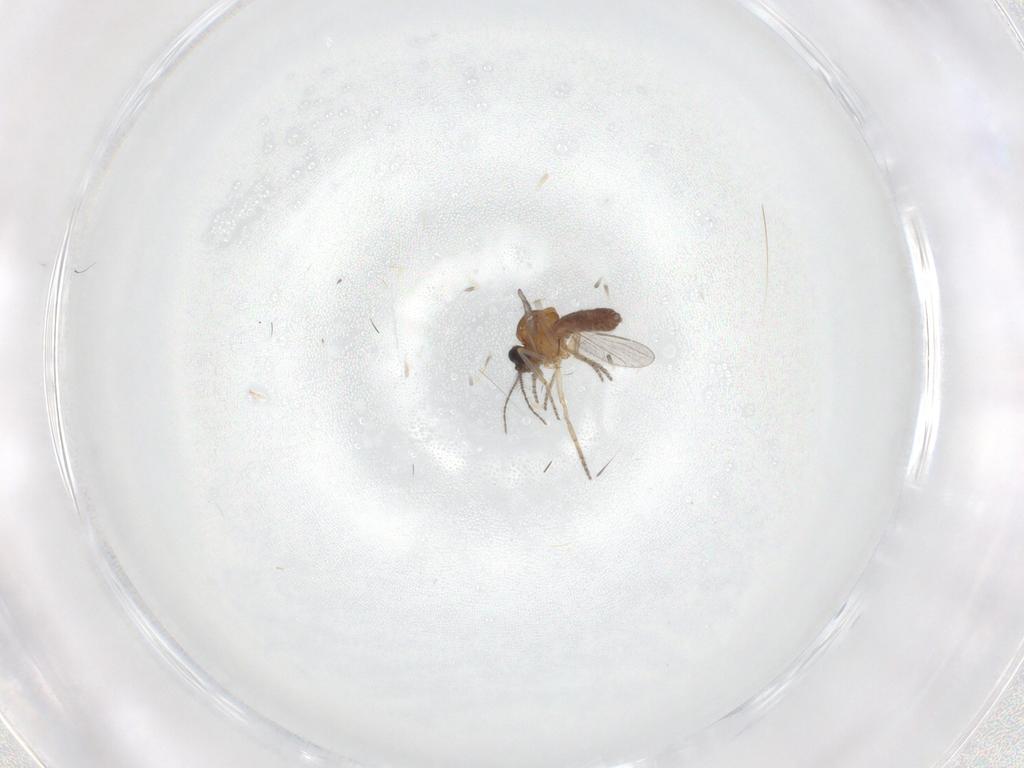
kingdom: Animalia
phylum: Arthropoda
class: Insecta
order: Diptera
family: Ceratopogonidae
